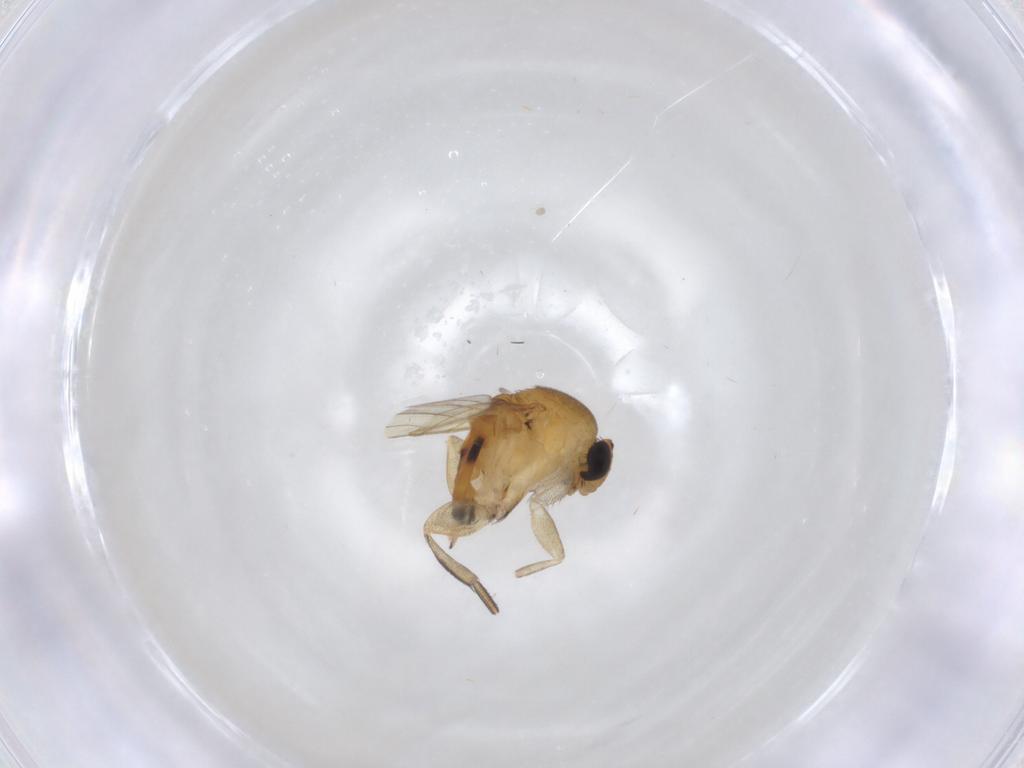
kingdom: Animalia
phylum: Arthropoda
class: Insecta
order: Diptera
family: Phoridae
